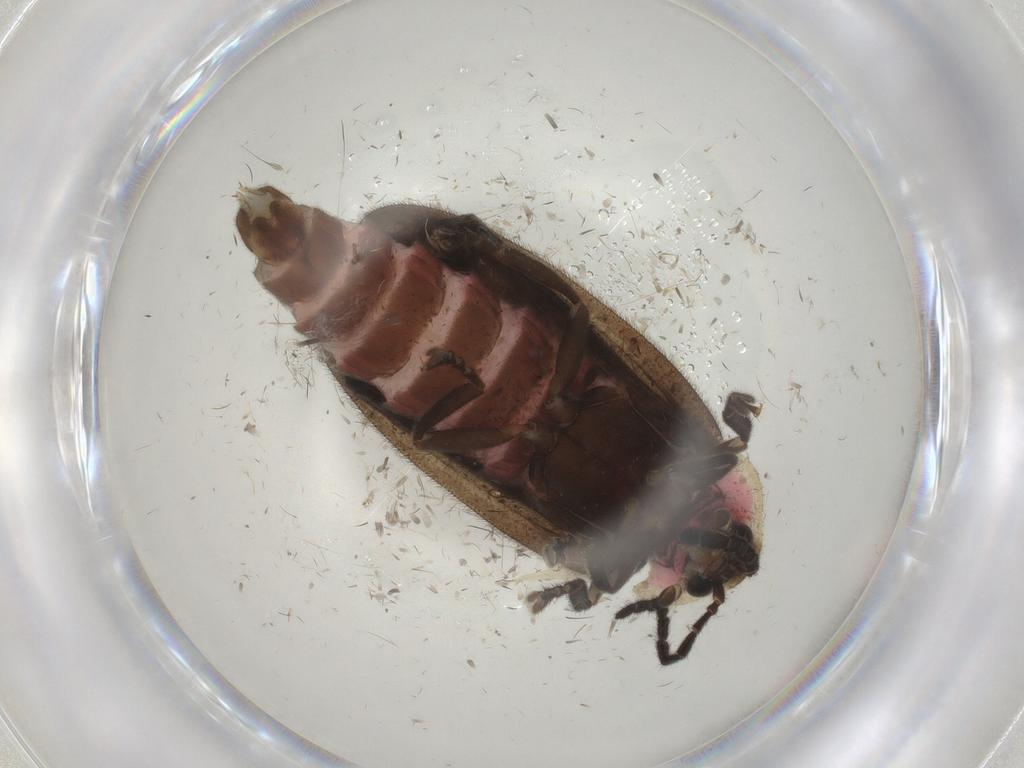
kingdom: Animalia
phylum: Arthropoda
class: Insecta
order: Coleoptera
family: Lampyridae
